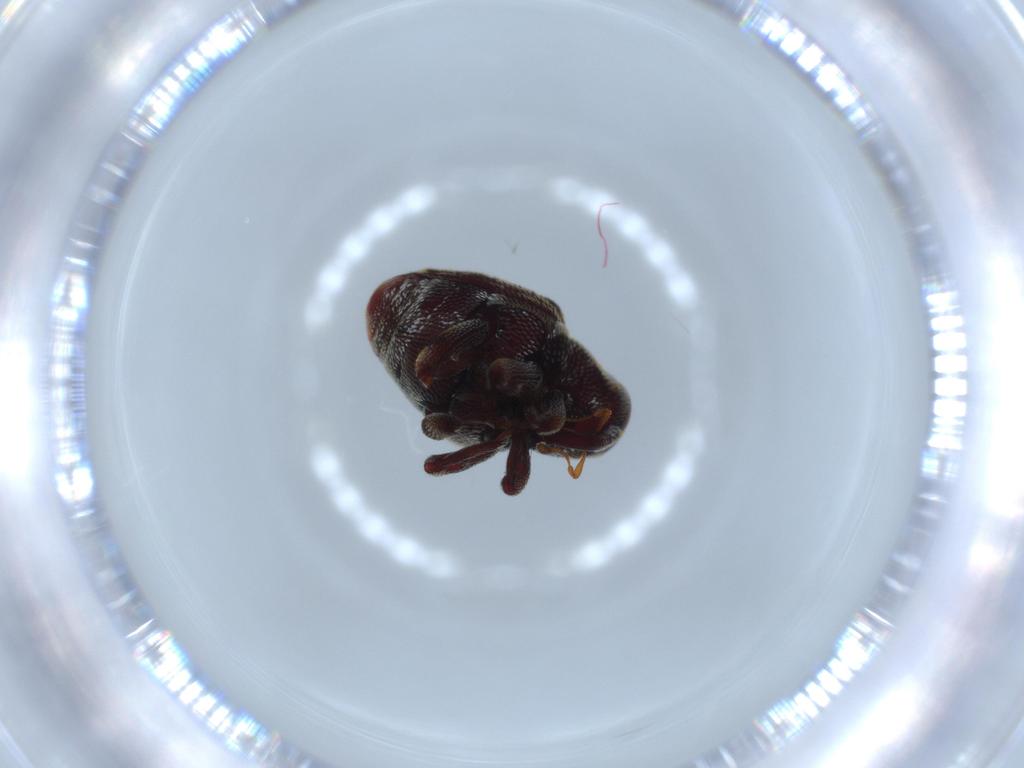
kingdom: Animalia
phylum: Arthropoda
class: Insecta
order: Coleoptera
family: Curculionidae
